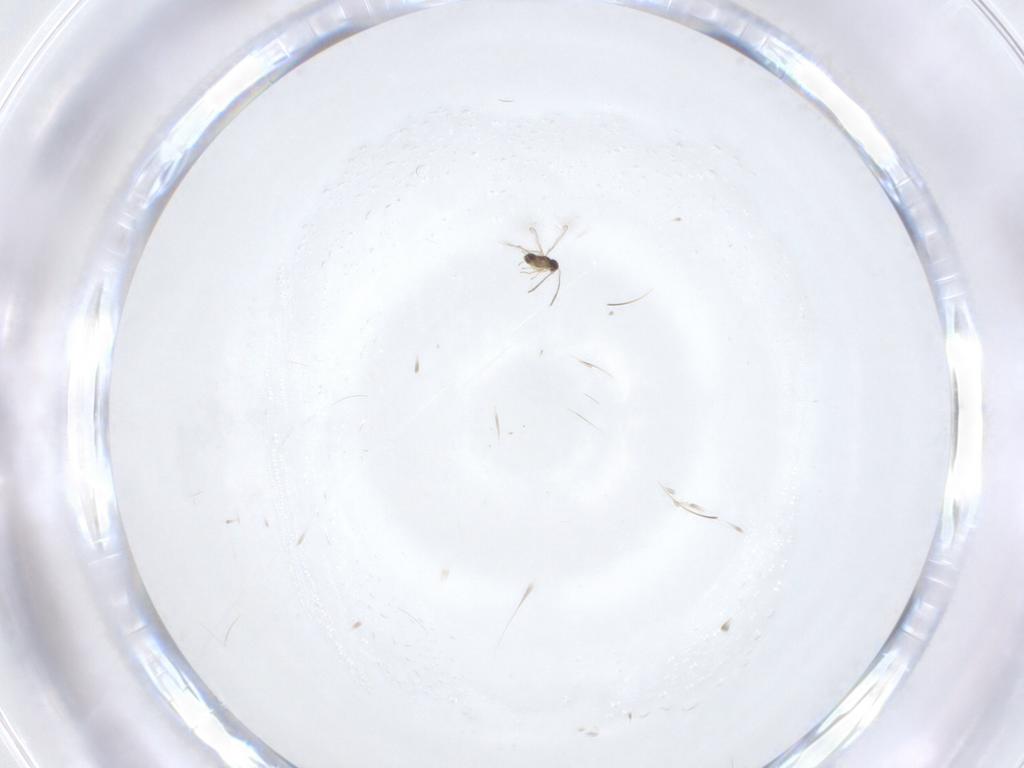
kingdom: Animalia
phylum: Arthropoda
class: Insecta
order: Hymenoptera
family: Mymaridae
